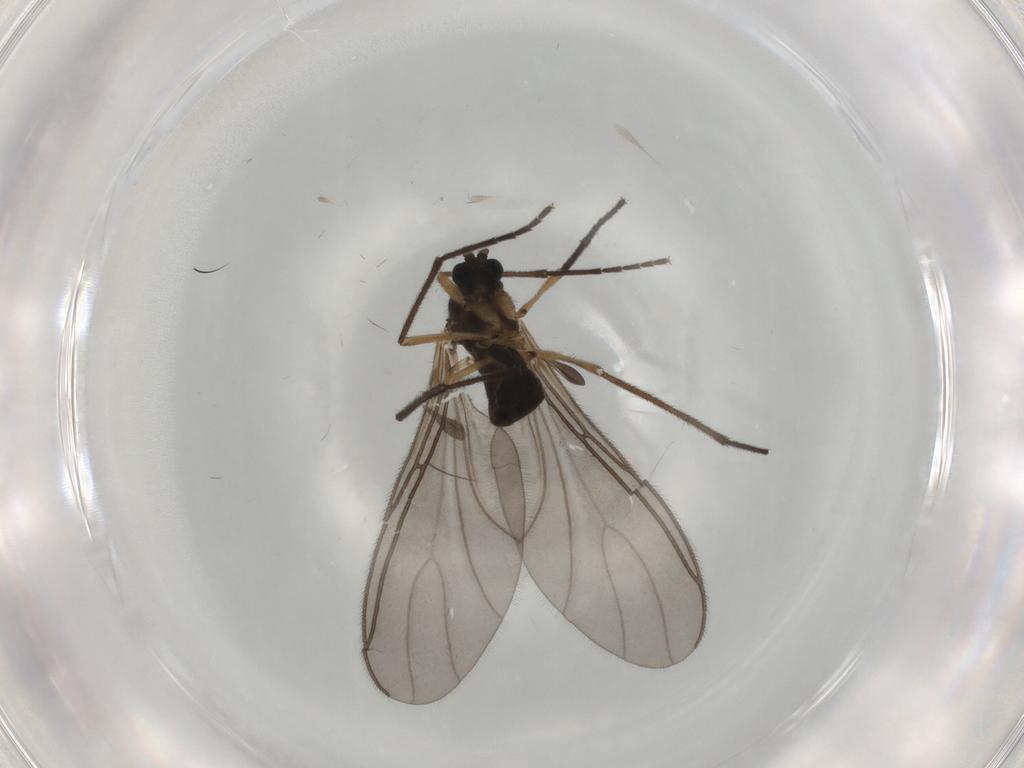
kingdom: Animalia
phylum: Arthropoda
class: Insecta
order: Diptera
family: Sciaridae
